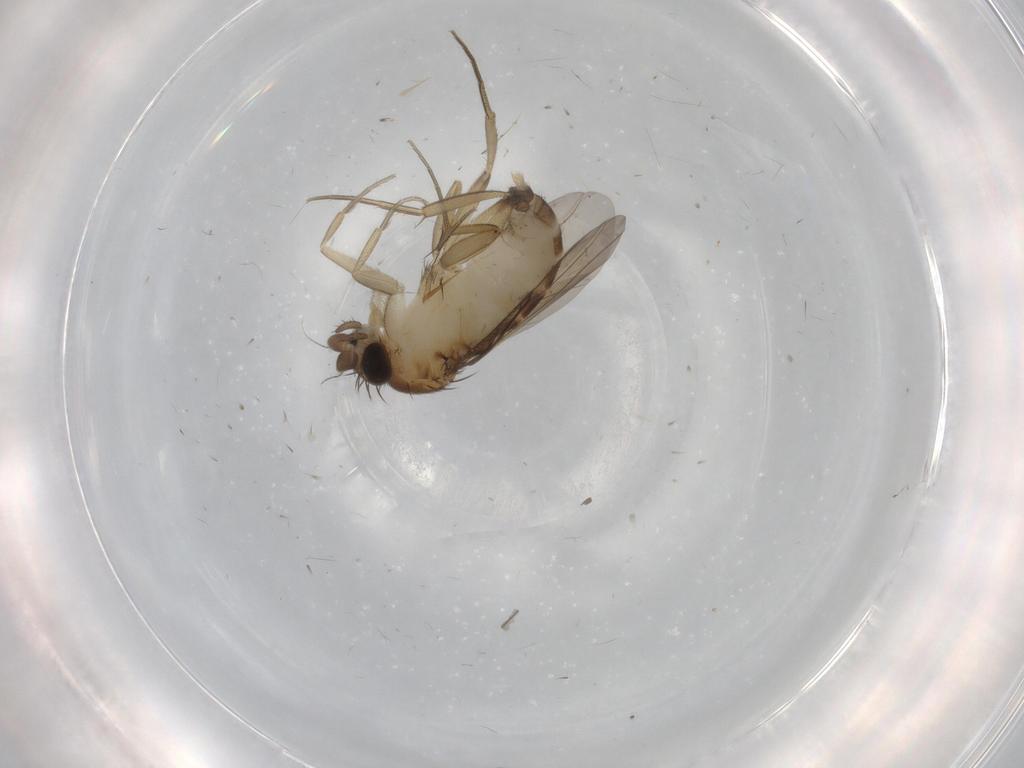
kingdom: Animalia
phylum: Arthropoda
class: Insecta
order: Diptera
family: Phoridae
